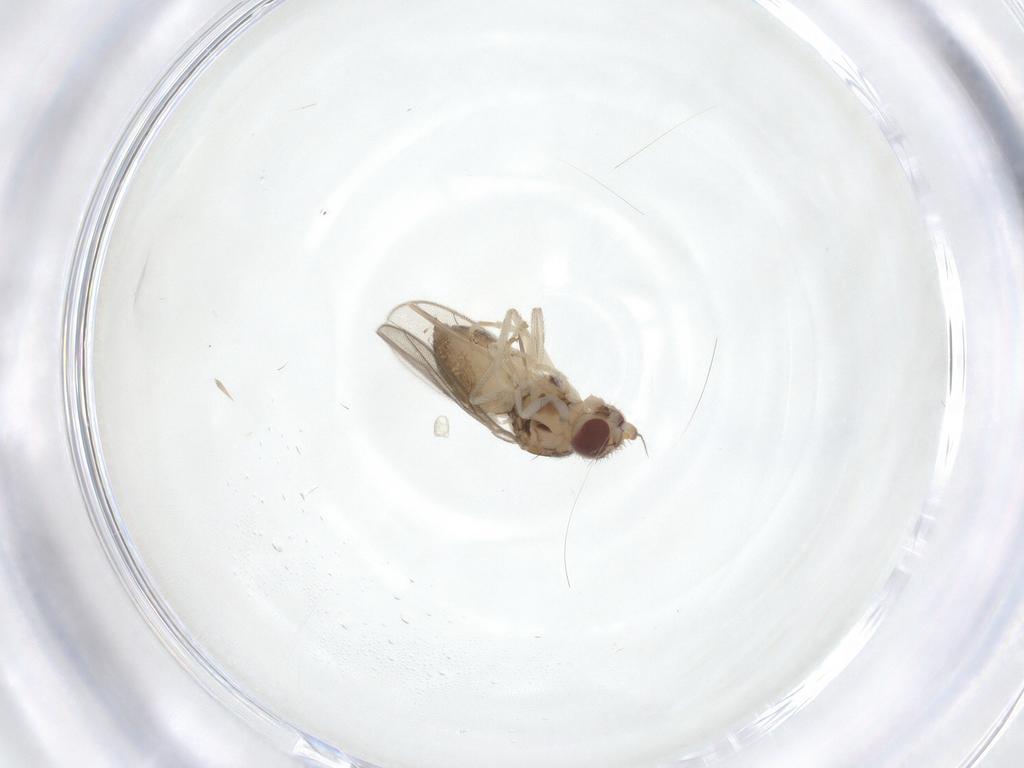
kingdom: Animalia
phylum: Arthropoda
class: Insecta
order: Diptera
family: Chloropidae
